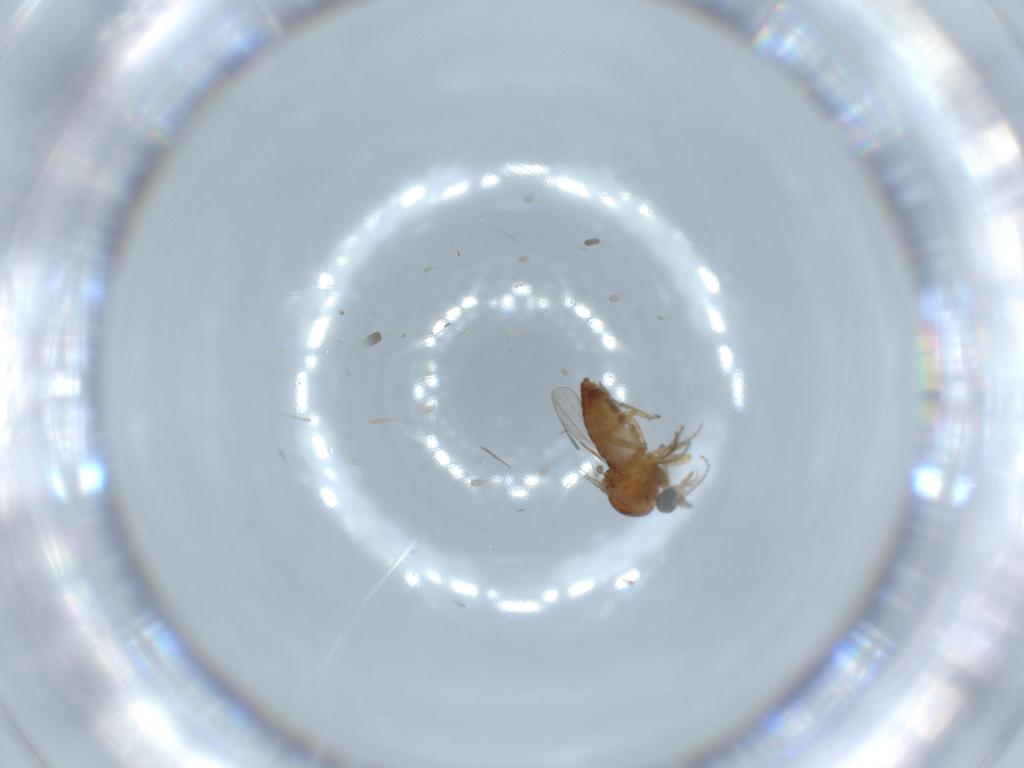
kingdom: Animalia
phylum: Arthropoda
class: Insecta
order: Diptera
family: Ceratopogonidae
